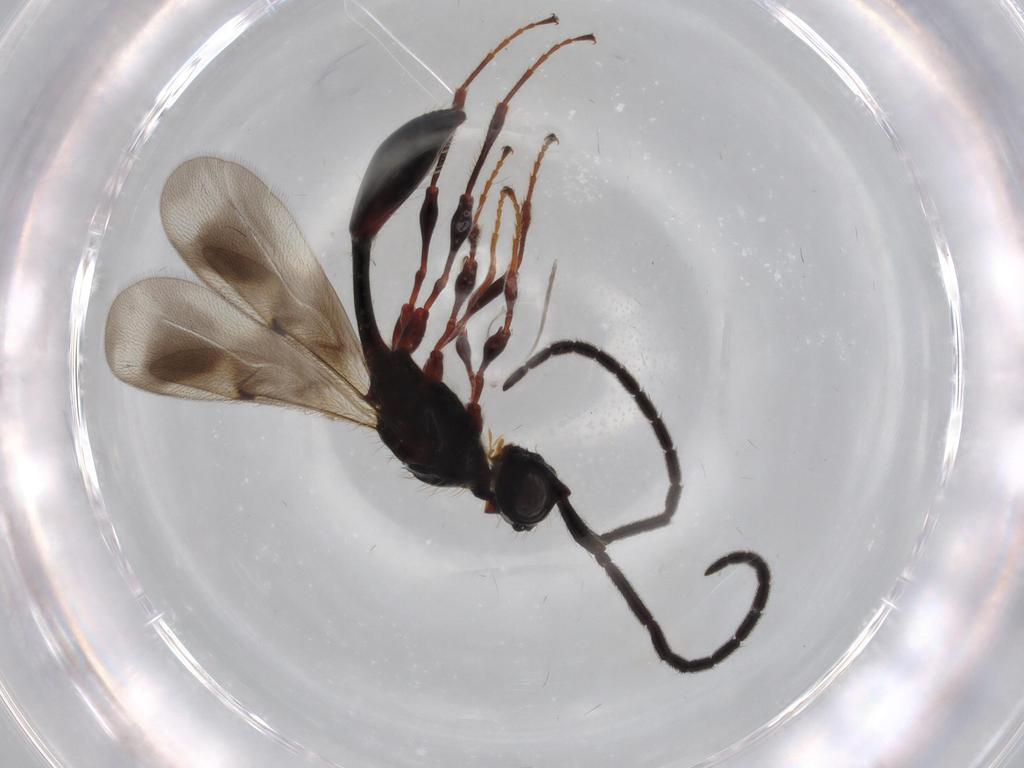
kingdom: Animalia
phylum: Arthropoda
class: Insecta
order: Hymenoptera
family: Diapriidae
